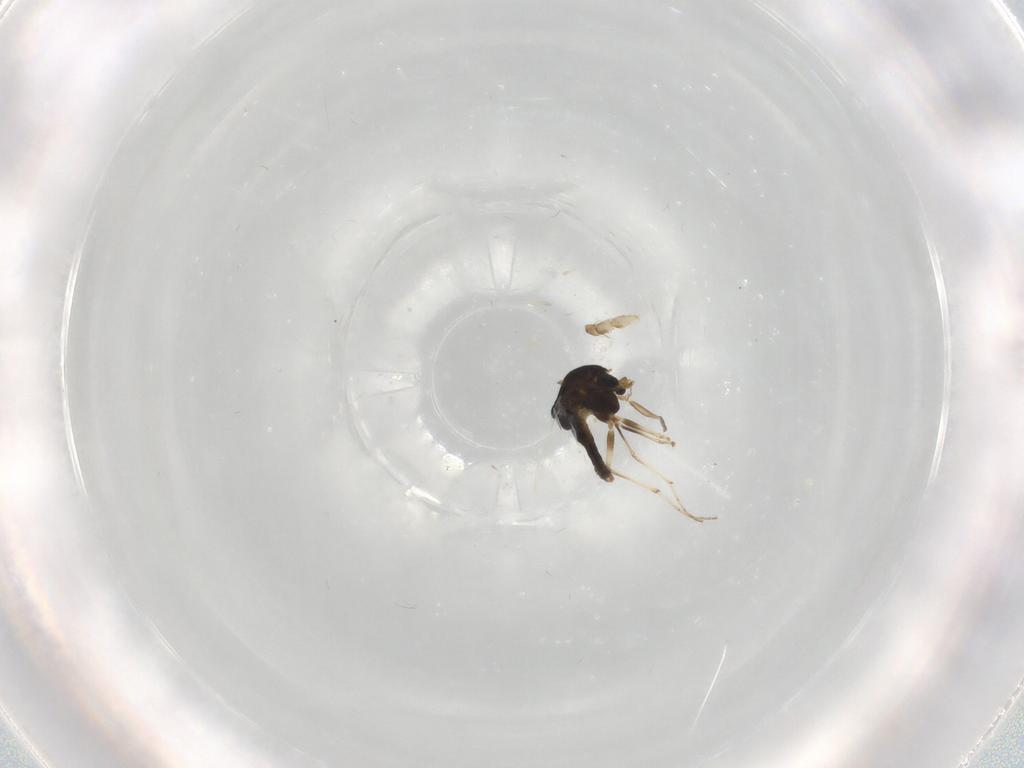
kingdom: Animalia
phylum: Arthropoda
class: Insecta
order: Diptera
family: Chironomidae
